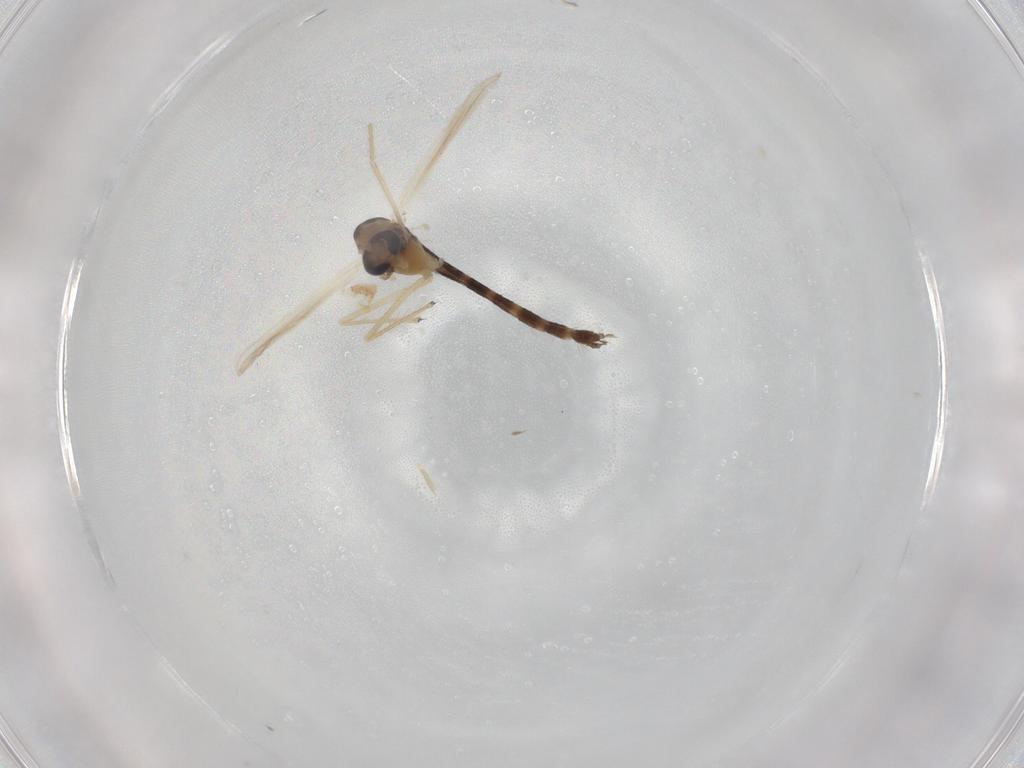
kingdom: Animalia
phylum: Arthropoda
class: Insecta
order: Diptera
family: Chironomidae
